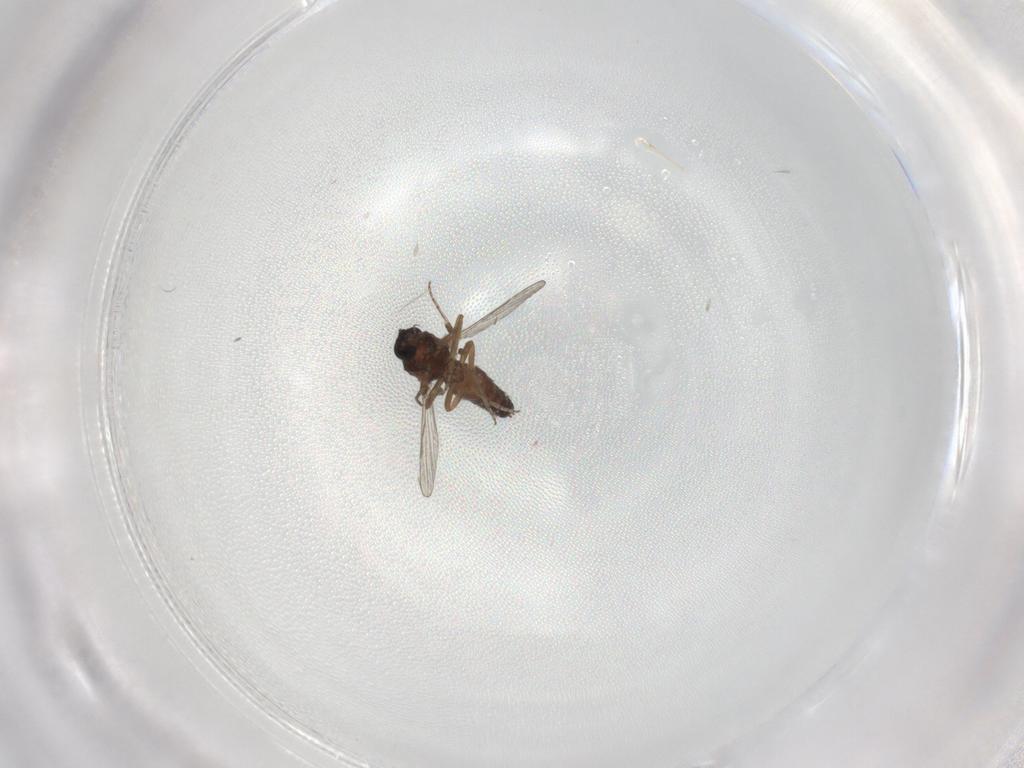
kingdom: Animalia
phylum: Arthropoda
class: Insecta
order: Diptera
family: Ceratopogonidae
